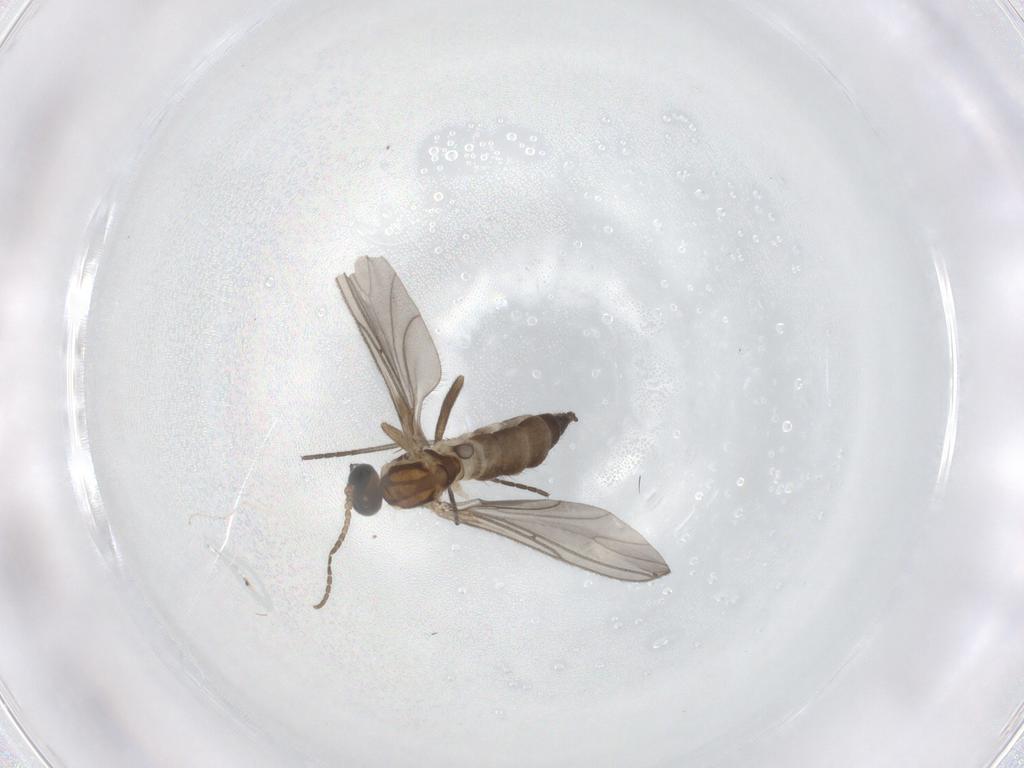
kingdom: Animalia
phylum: Arthropoda
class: Insecta
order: Diptera
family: Sciaridae
